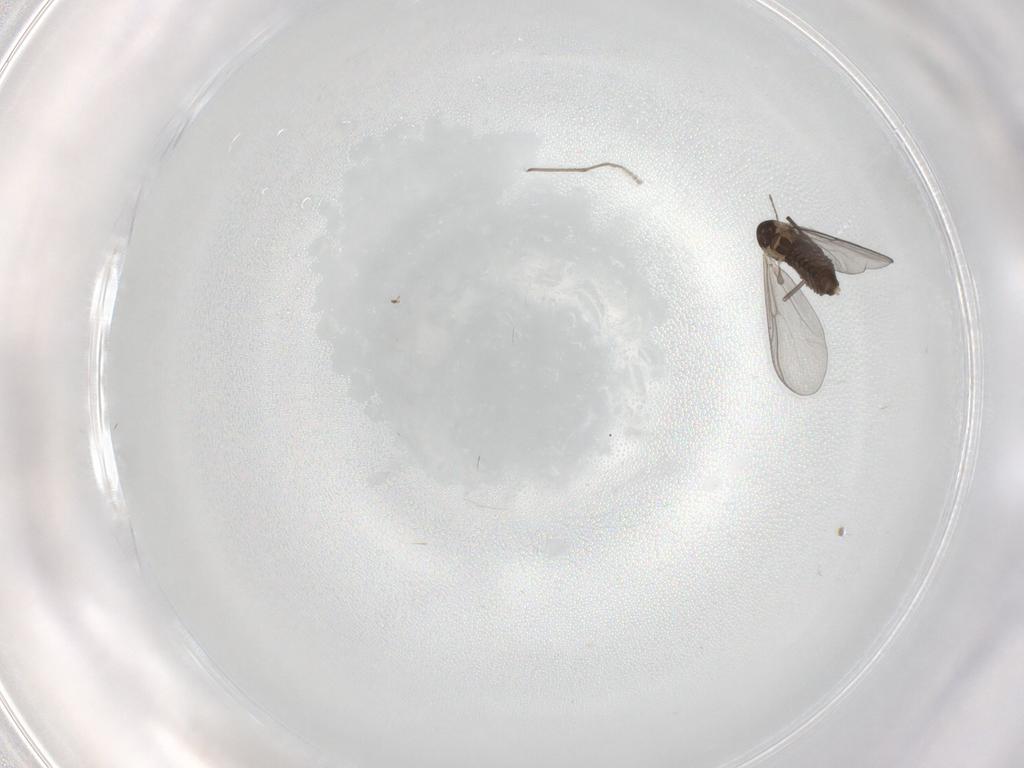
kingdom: Animalia
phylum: Arthropoda
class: Insecta
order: Diptera
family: Chironomidae
